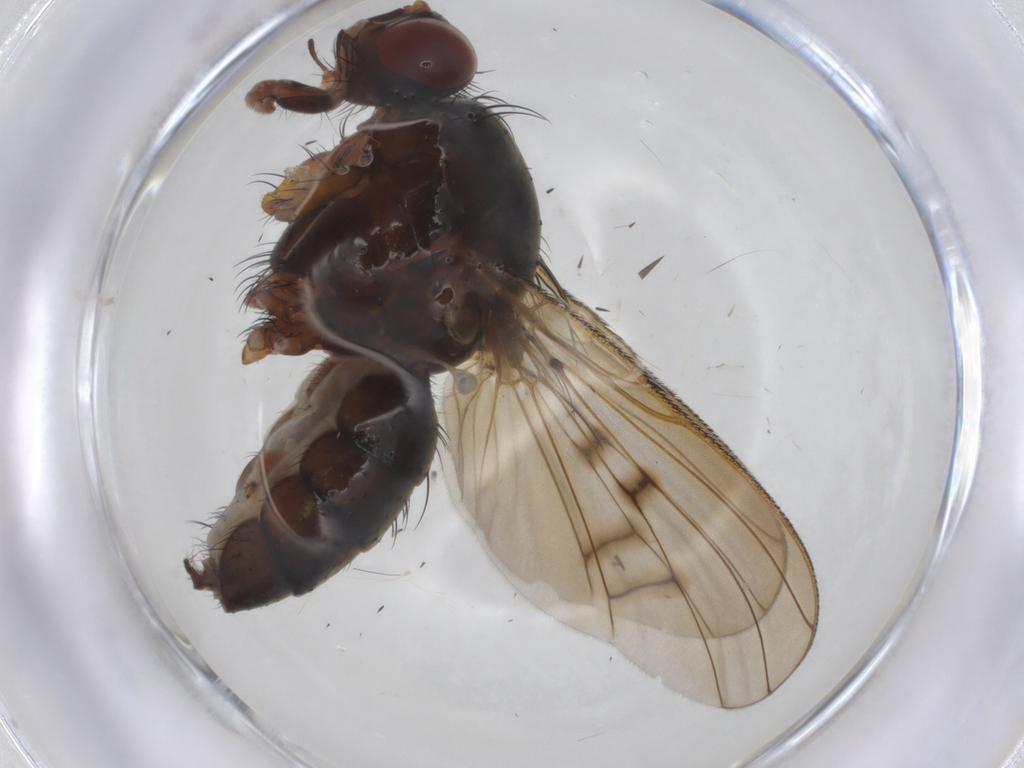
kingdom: Animalia
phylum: Arthropoda
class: Insecta
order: Diptera
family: Anthomyiidae
